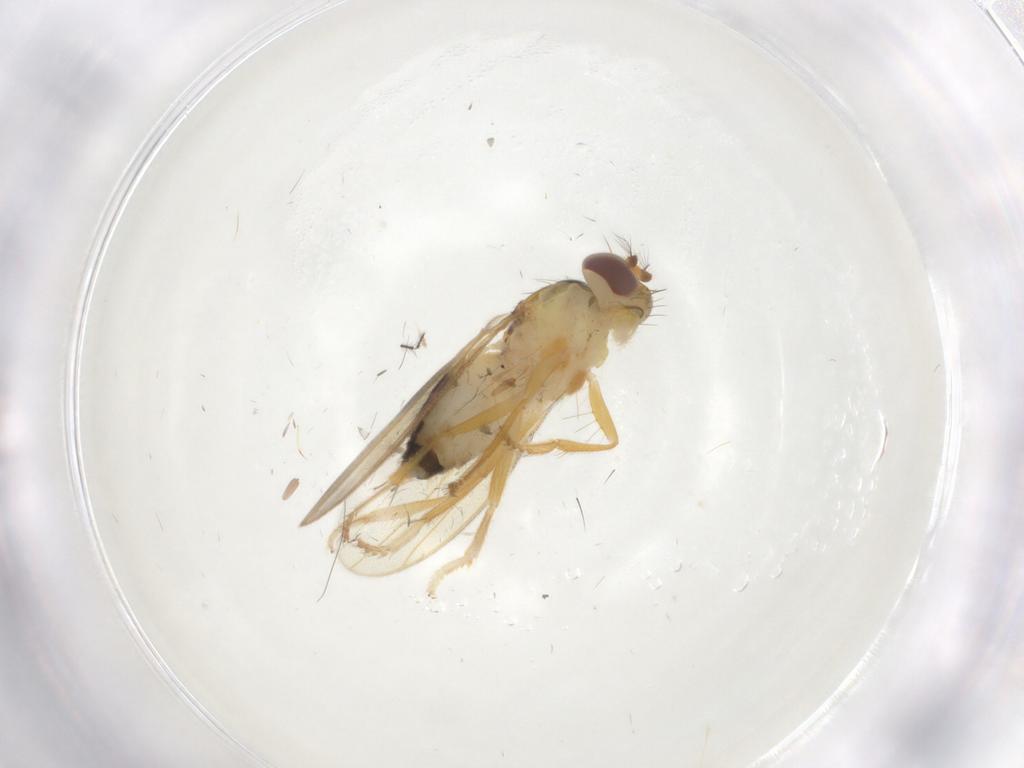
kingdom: Animalia
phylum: Arthropoda
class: Insecta
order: Diptera
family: Periscelididae
